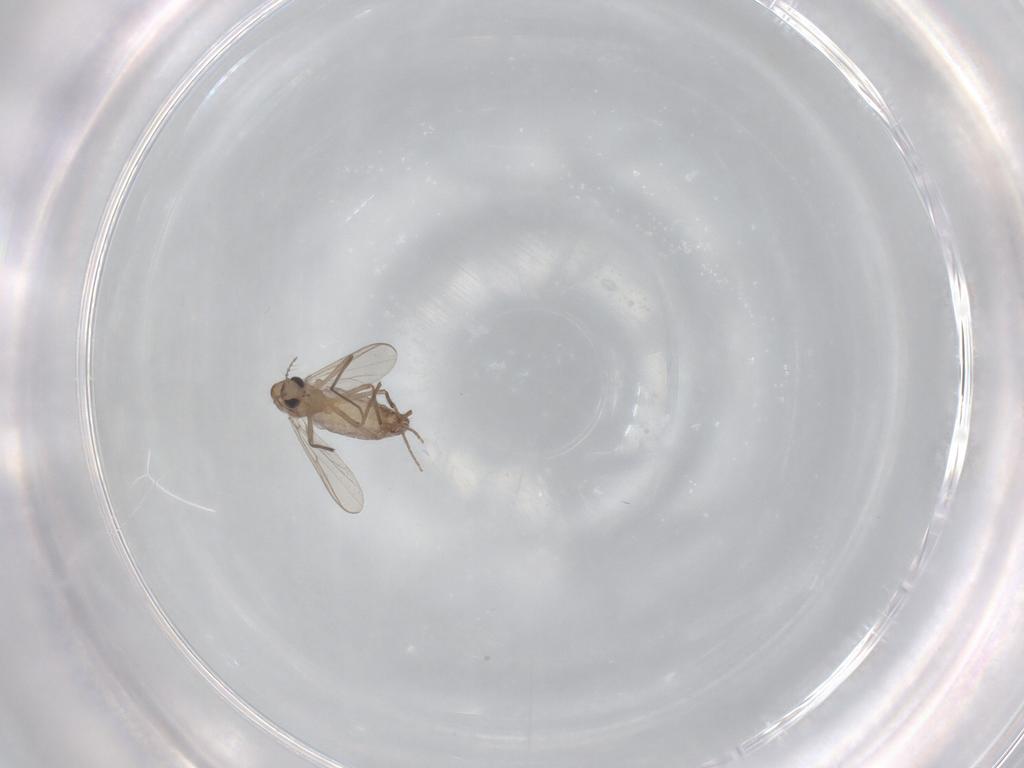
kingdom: Animalia
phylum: Arthropoda
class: Insecta
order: Diptera
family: Chironomidae
